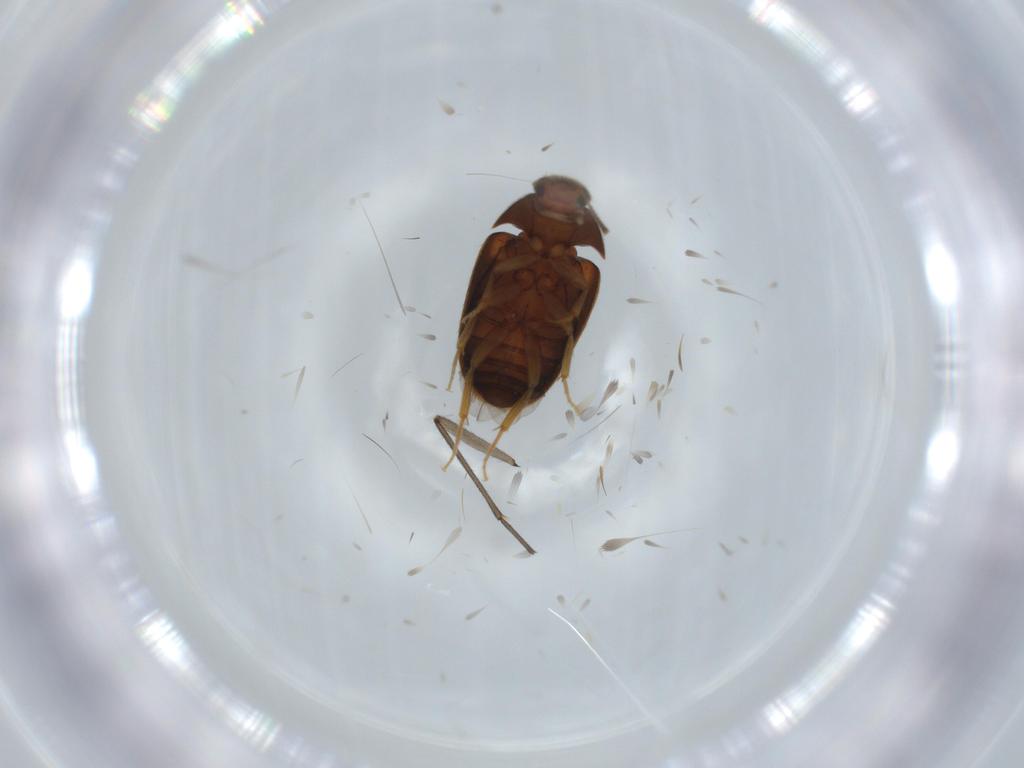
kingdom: Animalia
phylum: Arthropoda
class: Insecta
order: Coleoptera
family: Mycetophagidae
